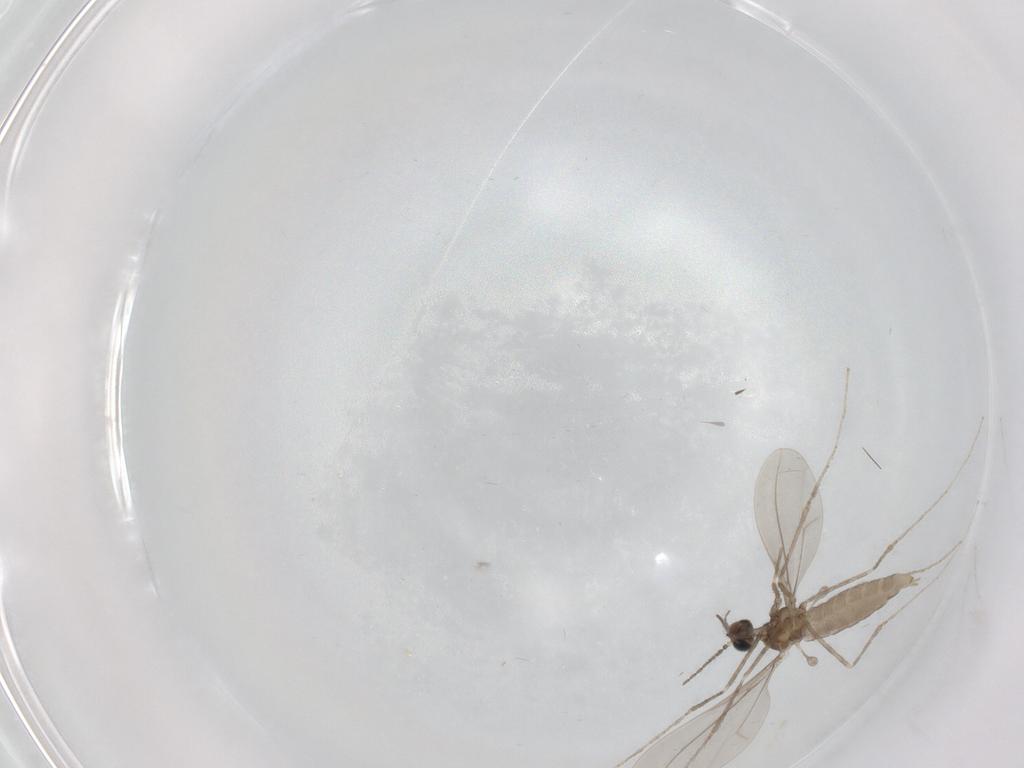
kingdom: Animalia
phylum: Arthropoda
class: Insecta
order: Diptera
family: Cecidomyiidae
